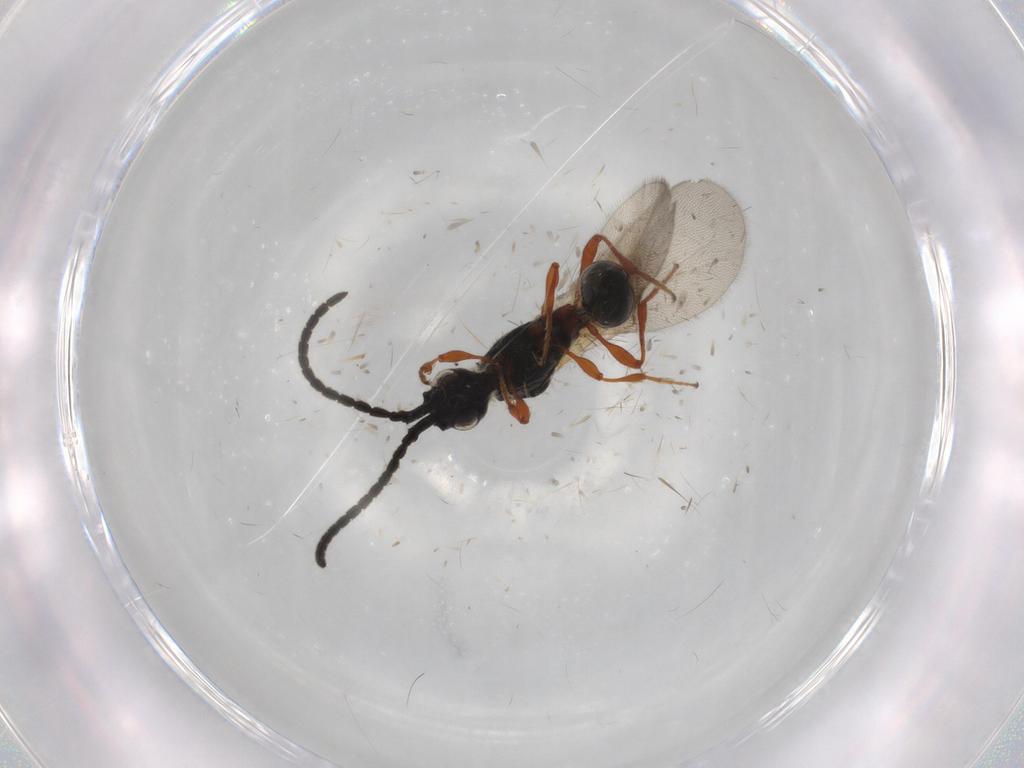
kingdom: Animalia
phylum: Arthropoda
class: Insecta
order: Hymenoptera
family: Diapriidae
